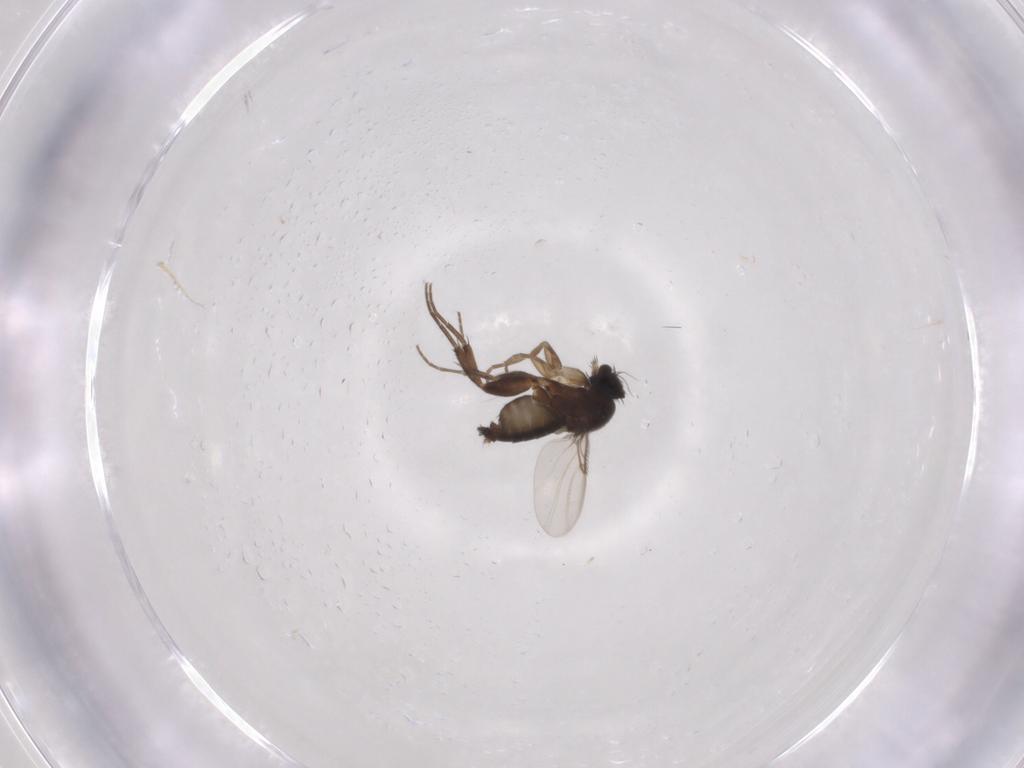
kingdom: Animalia
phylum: Arthropoda
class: Insecta
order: Diptera
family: Phoridae
